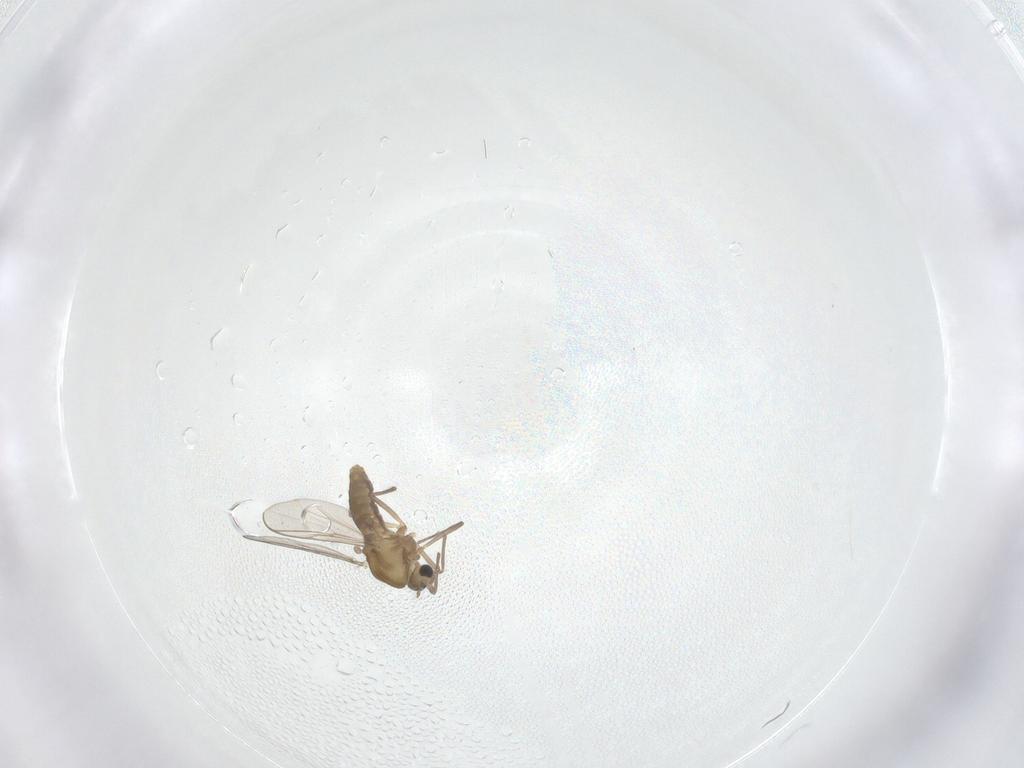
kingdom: Animalia
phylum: Arthropoda
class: Insecta
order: Diptera
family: Chironomidae
